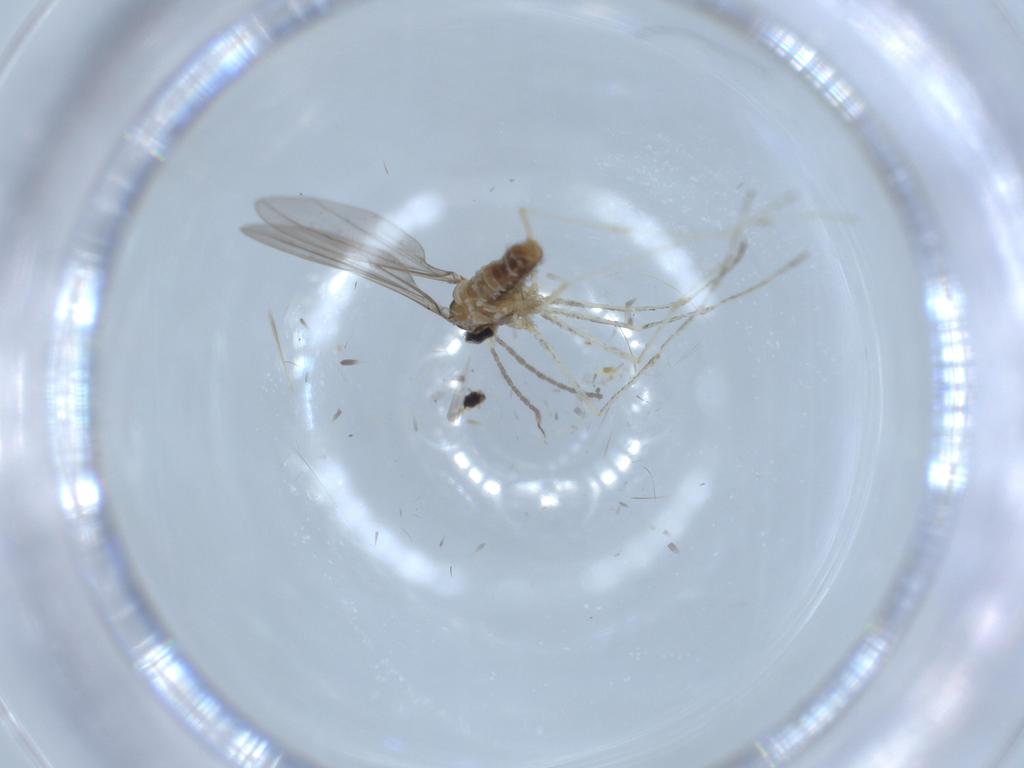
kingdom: Animalia
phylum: Arthropoda
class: Insecta
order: Diptera
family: Cecidomyiidae
